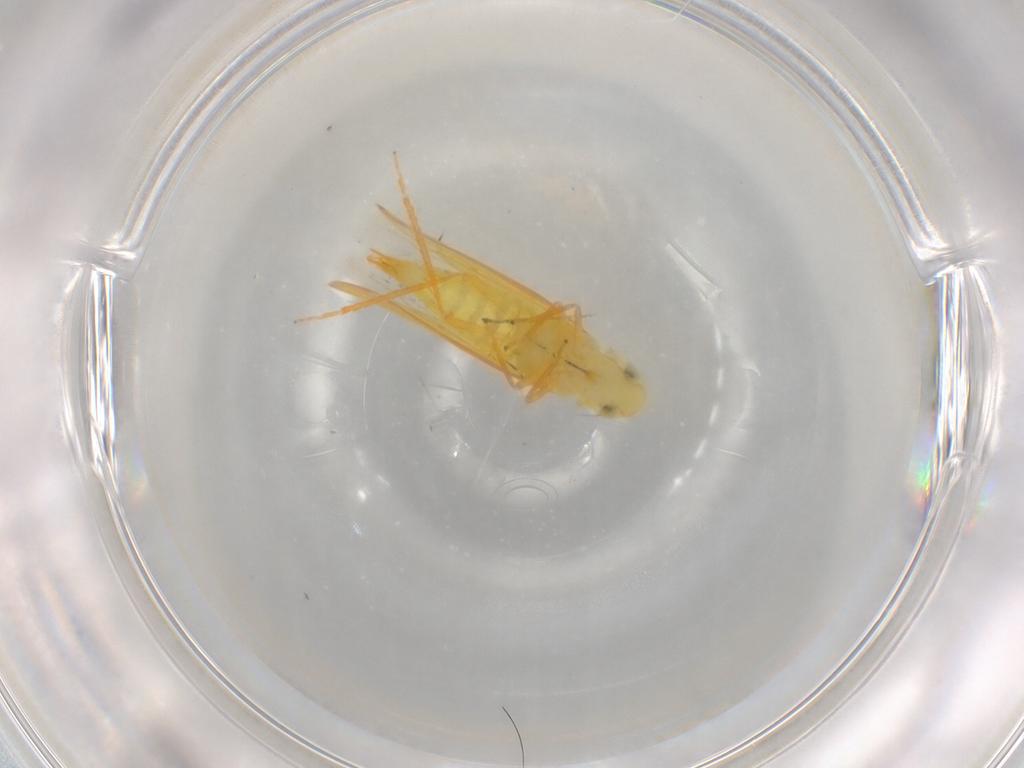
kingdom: Animalia
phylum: Arthropoda
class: Insecta
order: Hemiptera
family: Cicadellidae
